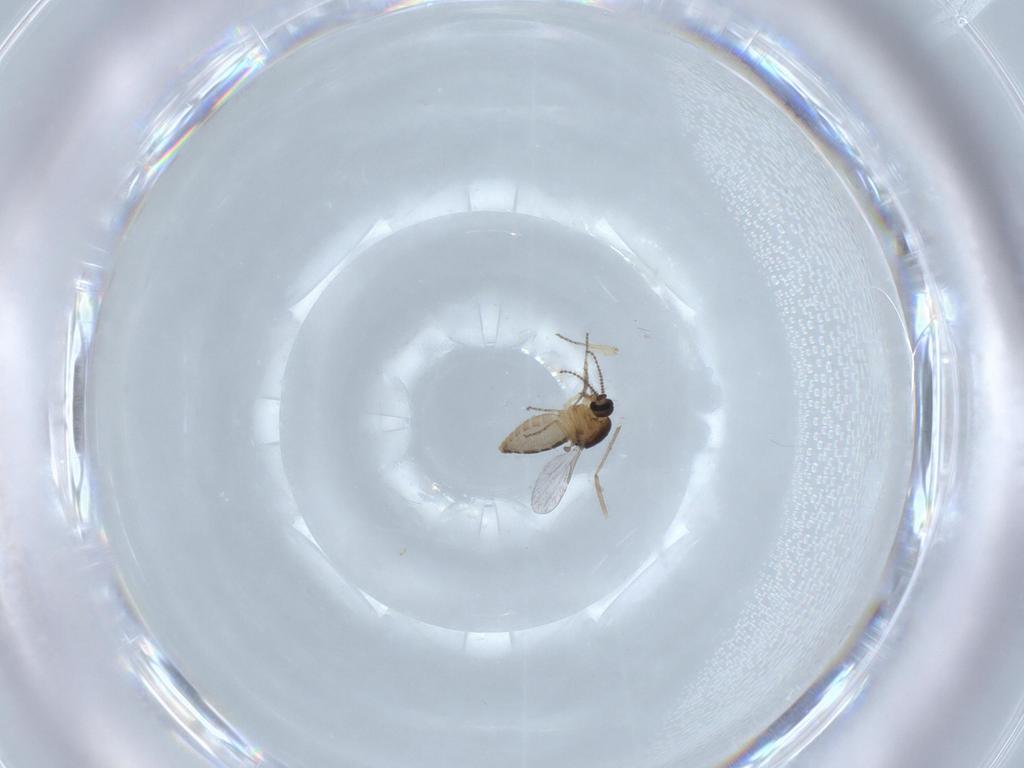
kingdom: Animalia
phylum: Arthropoda
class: Insecta
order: Diptera
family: Ceratopogonidae
